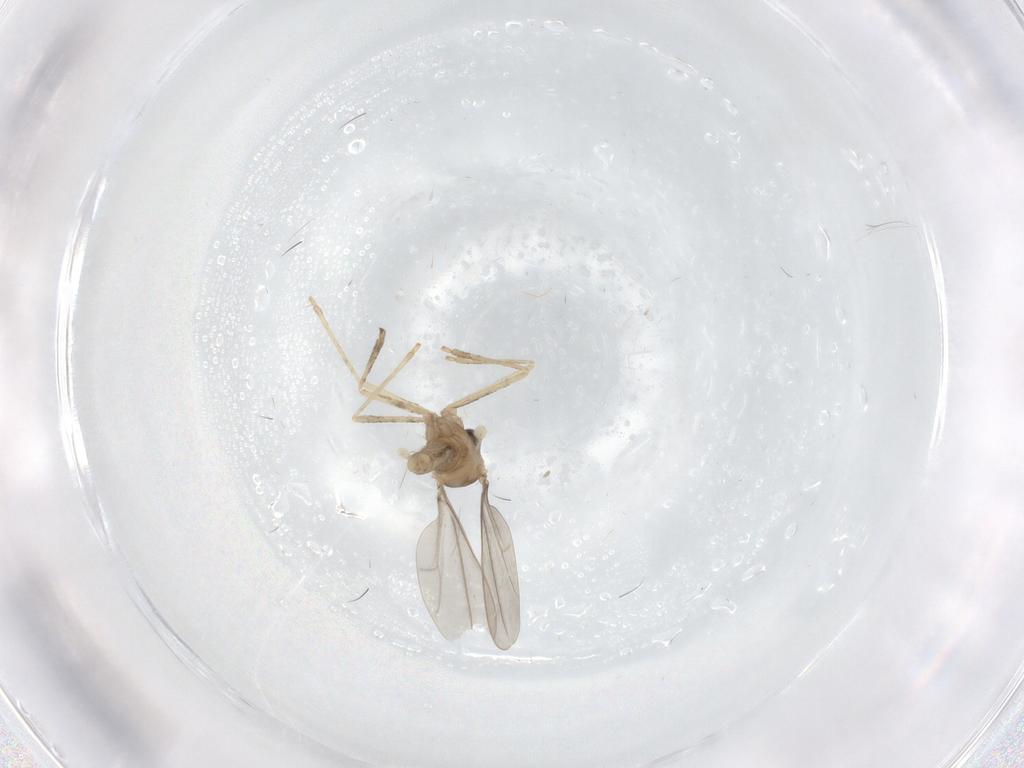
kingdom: Animalia
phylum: Arthropoda
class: Insecta
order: Diptera
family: Cecidomyiidae
